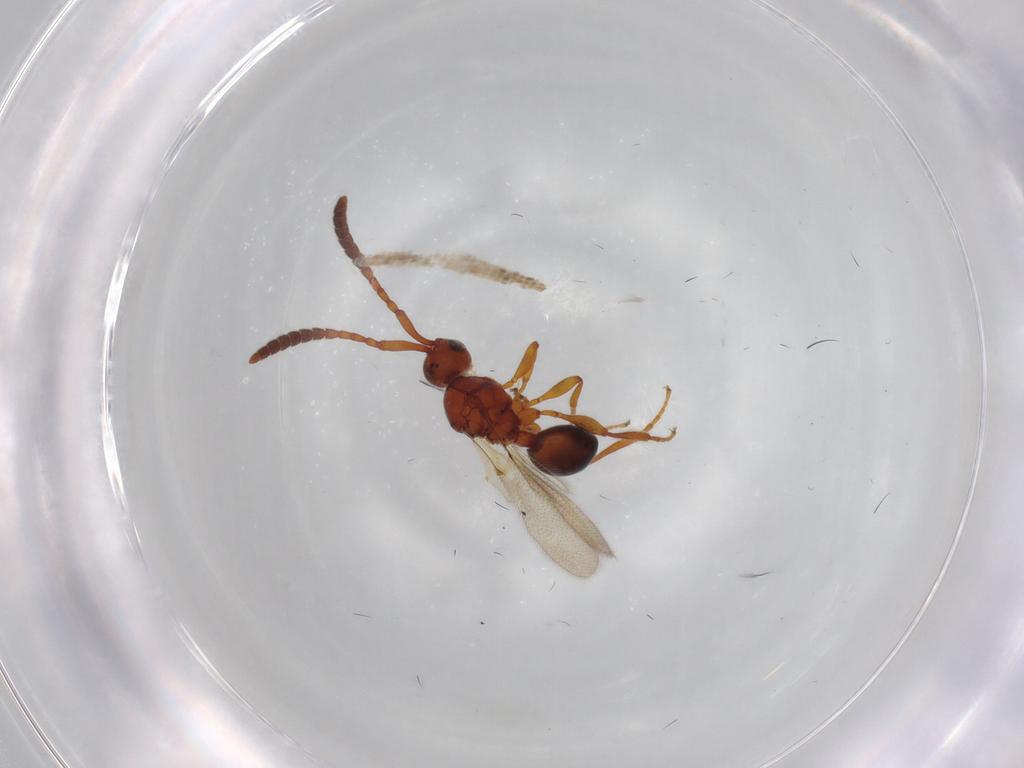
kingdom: Animalia
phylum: Arthropoda
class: Insecta
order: Hymenoptera
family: Diapriidae
